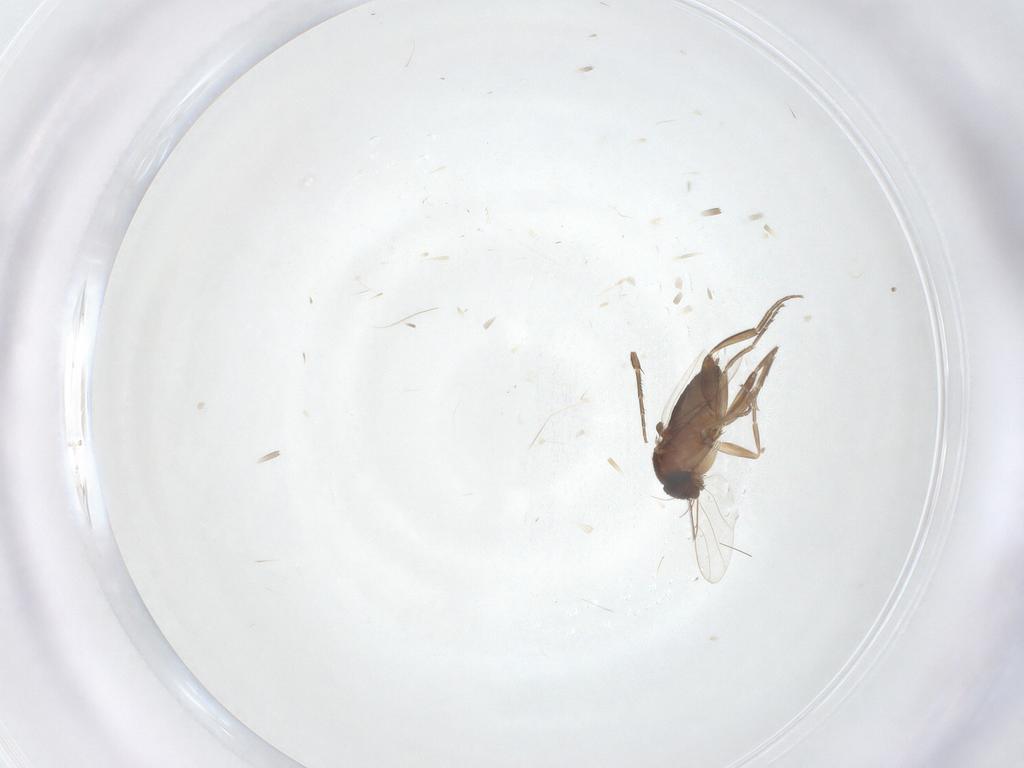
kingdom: Animalia
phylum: Arthropoda
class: Insecta
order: Diptera
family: Phoridae
